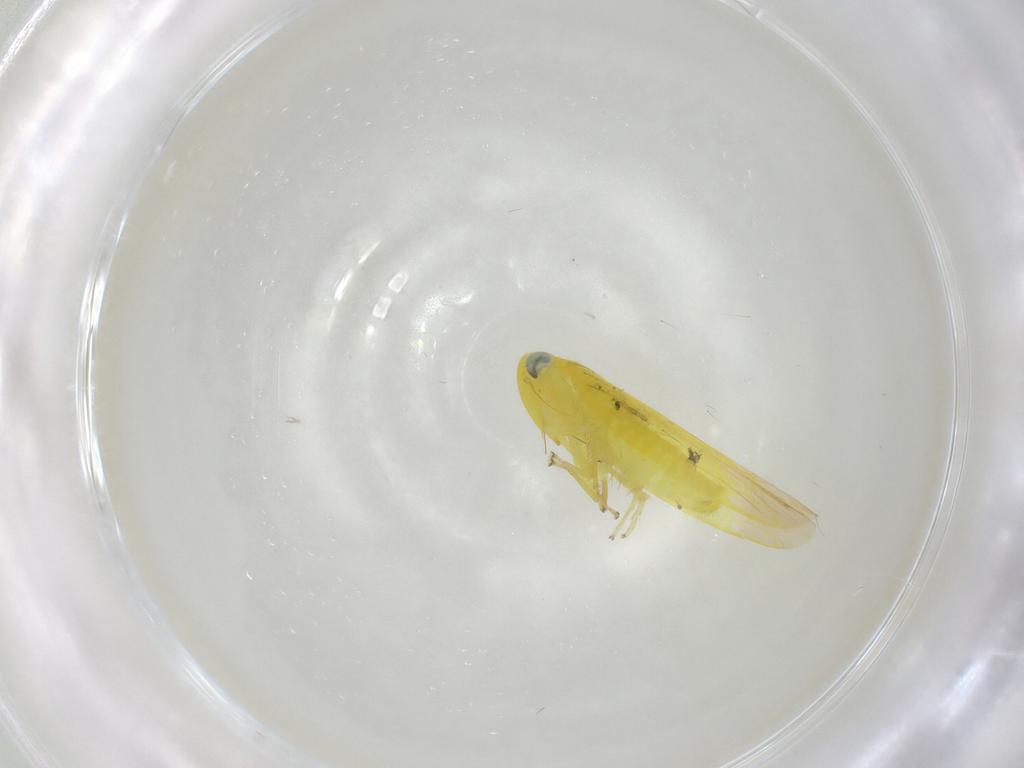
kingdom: Animalia
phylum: Arthropoda
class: Insecta
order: Hemiptera
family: Cicadellidae
